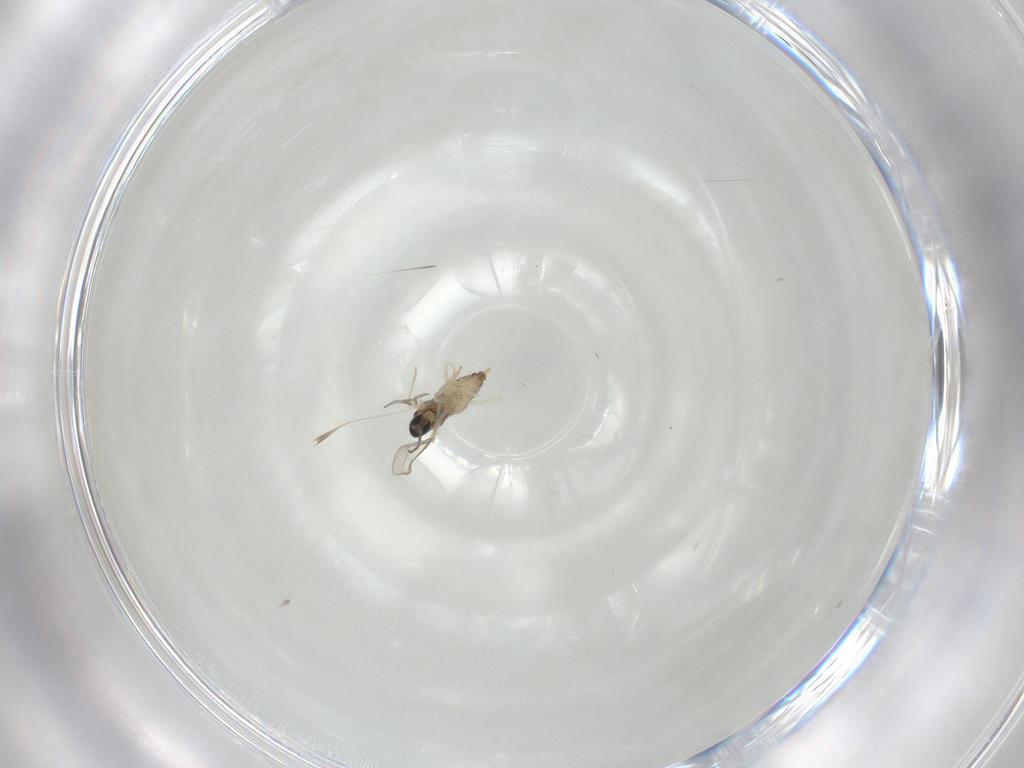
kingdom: Animalia
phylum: Arthropoda
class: Insecta
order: Diptera
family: Cecidomyiidae
